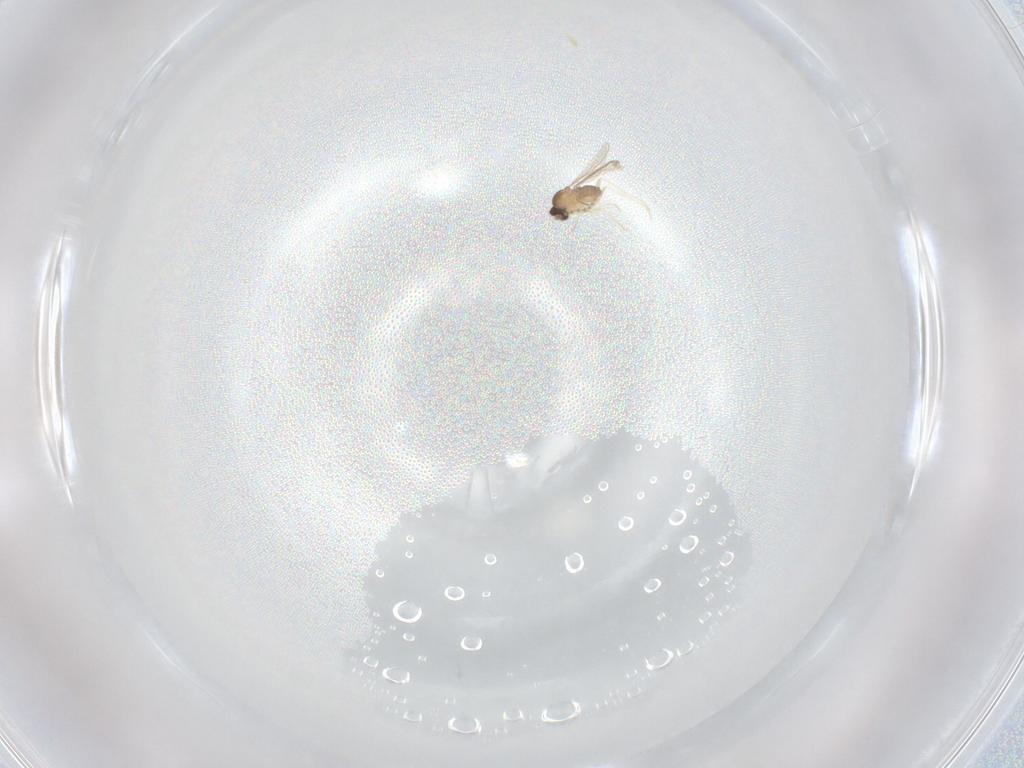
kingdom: Animalia
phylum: Arthropoda
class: Insecta
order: Diptera
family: Cecidomyiidae
